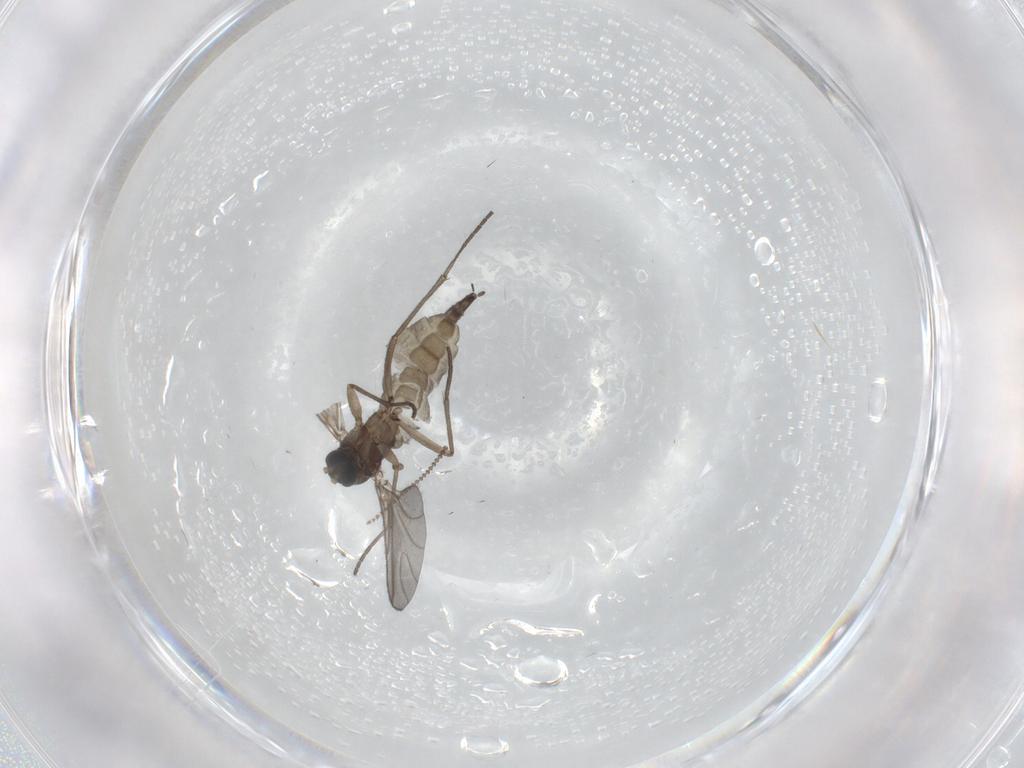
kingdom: Animalia
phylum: Arthropoda
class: Insecta
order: Diptera
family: Sciaridae
